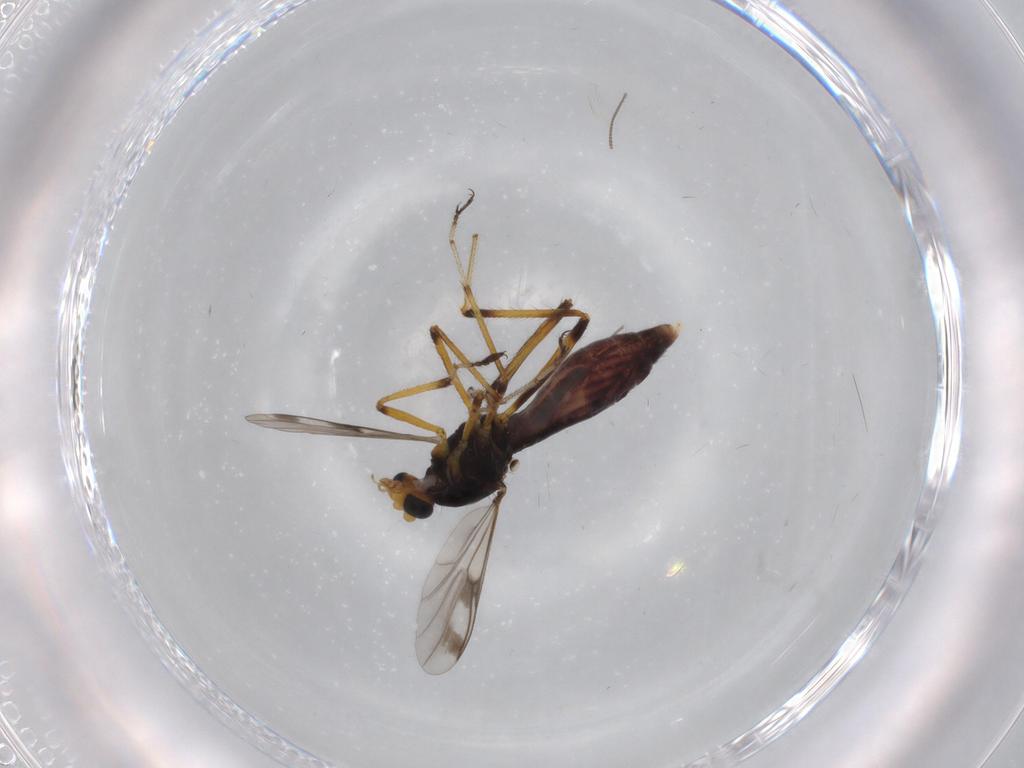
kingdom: Animalia
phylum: Arthropoda
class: Insecta
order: Diptera
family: Ceratopogonidae
